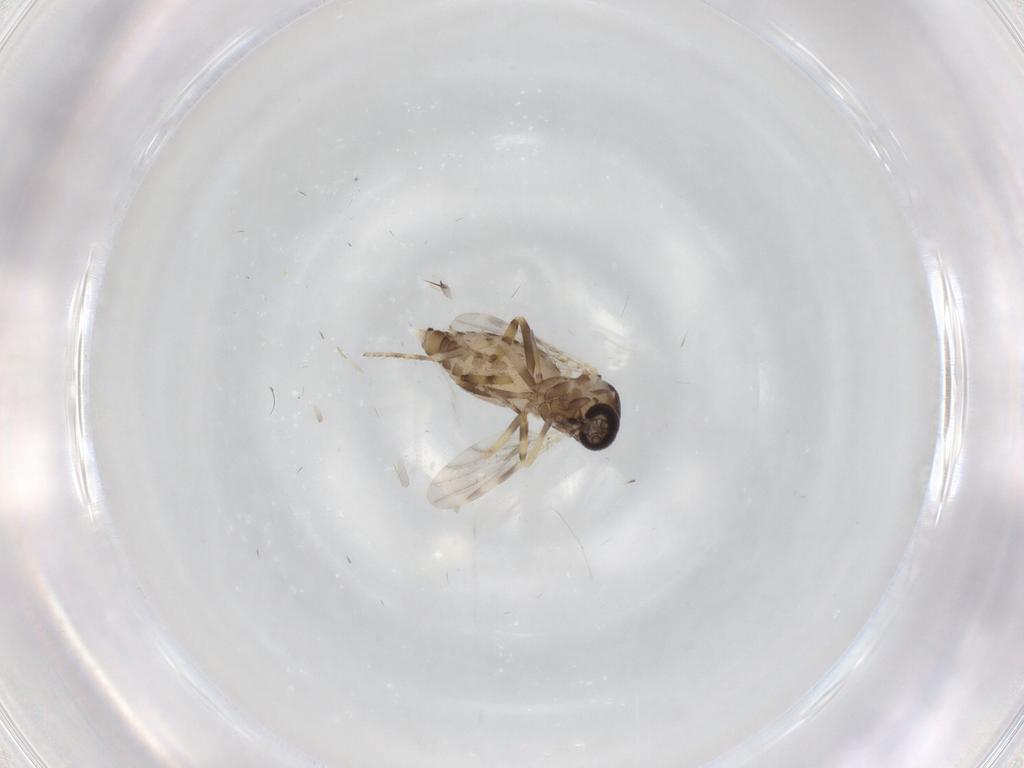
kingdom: Animalia
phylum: Arthropoda
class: Insecta
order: Diptera
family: Ceratopogonidae
